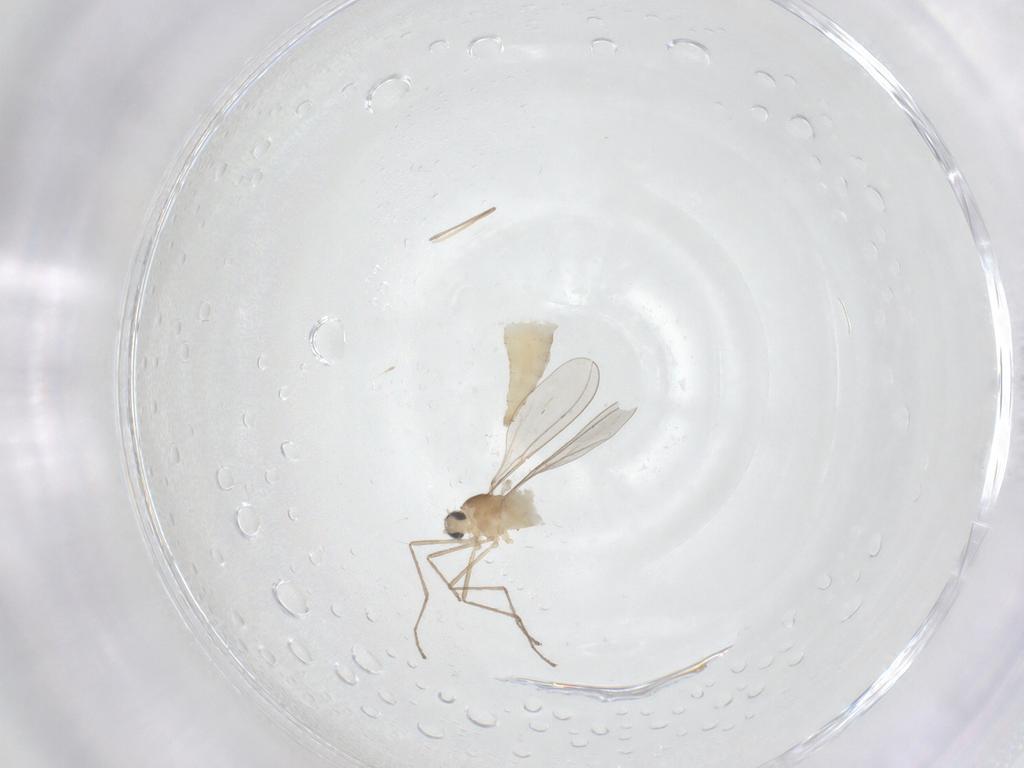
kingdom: Animalia
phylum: Arthropoda
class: Insecta
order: Diptera
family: Cecidomyiidae
